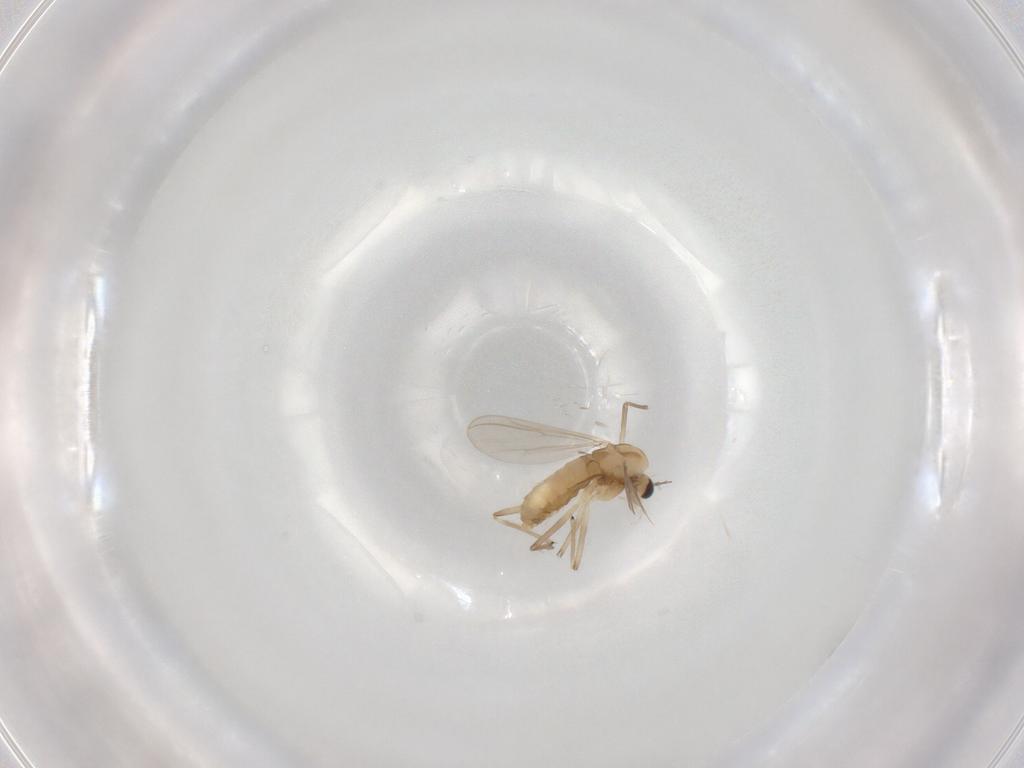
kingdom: Animalia
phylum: Arthropoda
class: Insecta
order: Diptera
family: Chironomidae
